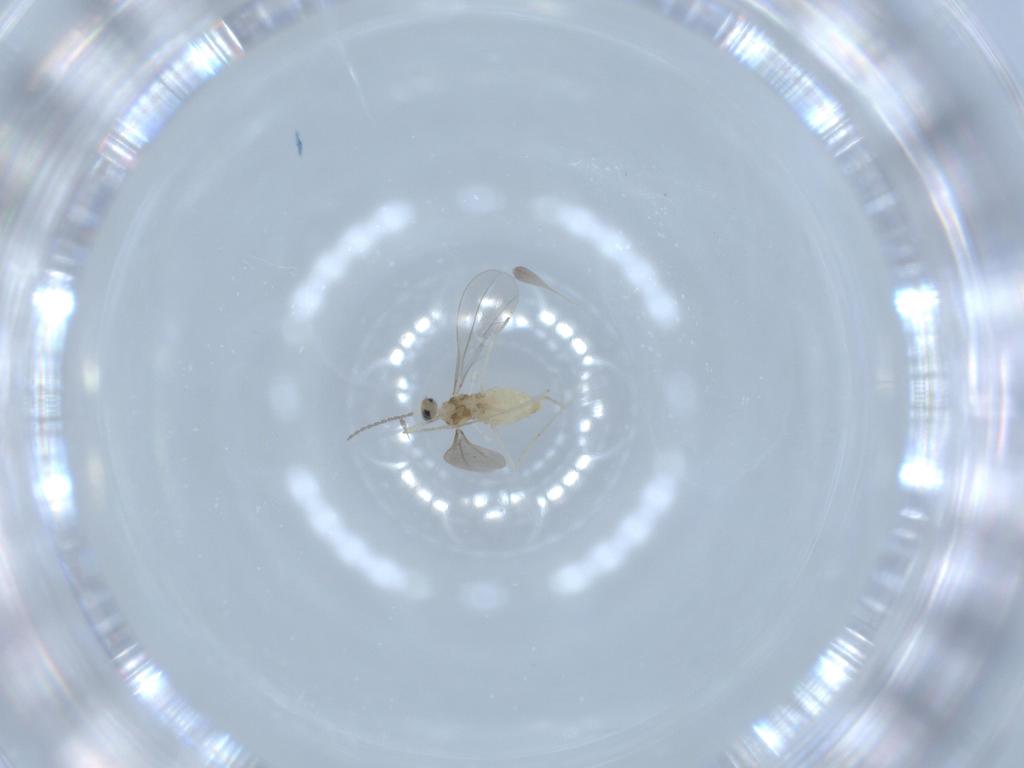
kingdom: Animalia
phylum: Arthropoda
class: Insecta
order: Diptera
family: Cecidomyiidae
